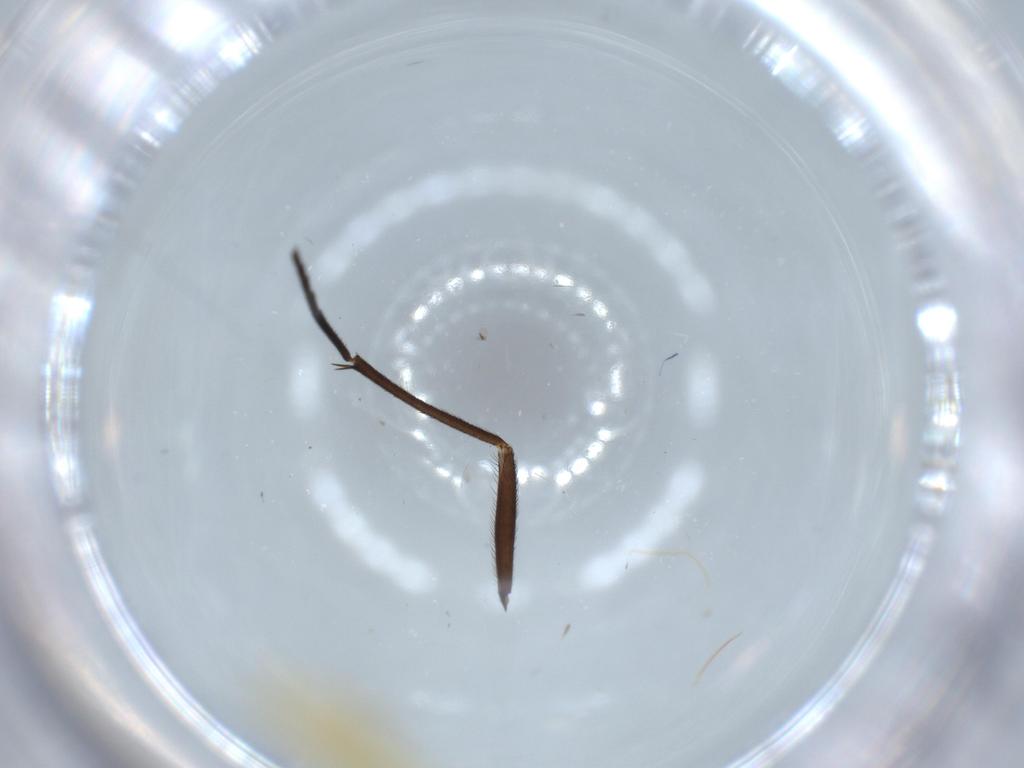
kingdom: Animalia
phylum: Arthropoda
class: Insecta
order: Hemiptera
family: Cicadellidae
